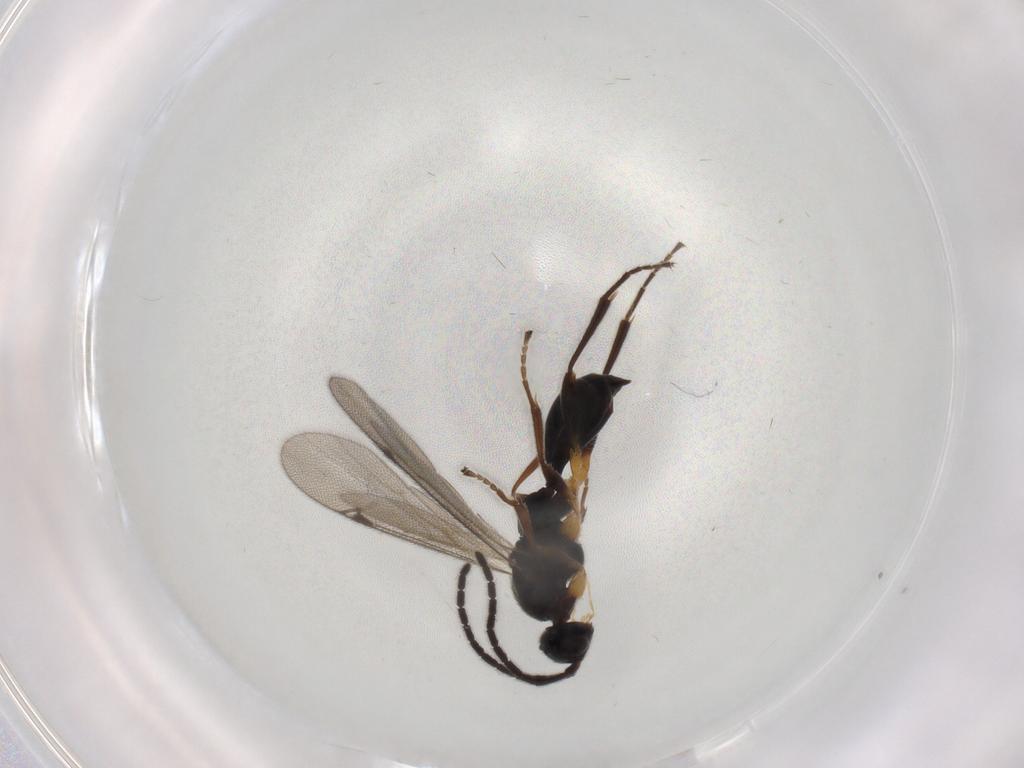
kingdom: Animalia
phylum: Arthropoda
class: Insecta
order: Hymenoptera
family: Proctotrupidae
